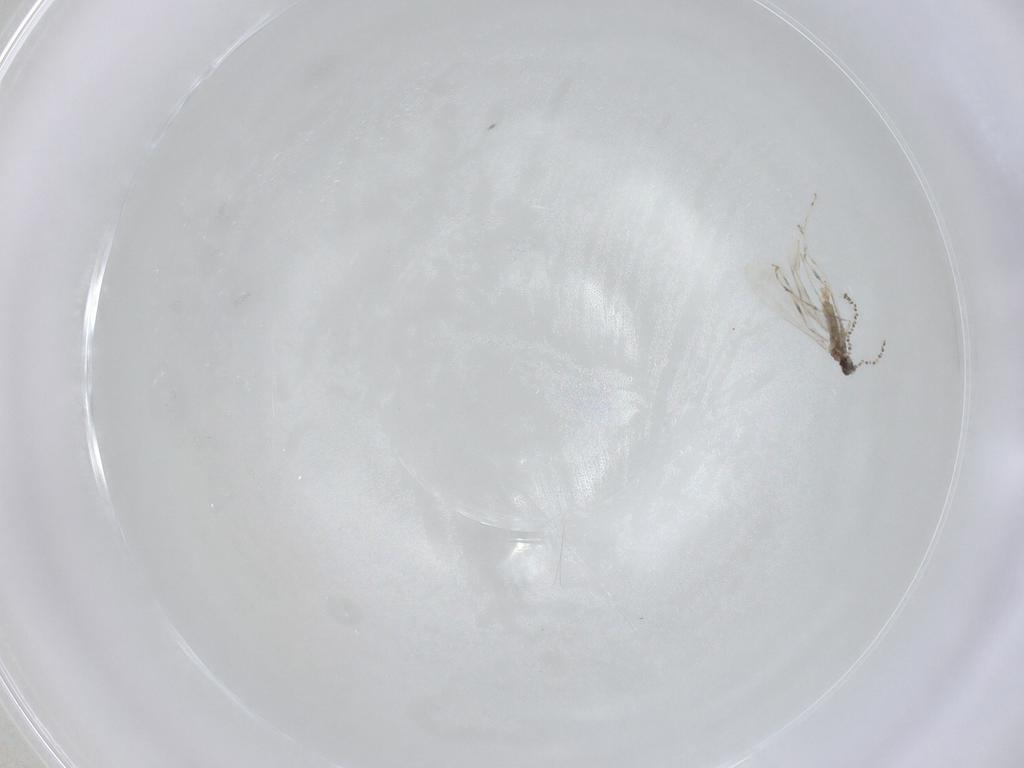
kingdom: Animalia
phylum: Arthropoda
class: Insecta
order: Diptera
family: Cecidomyiidae
